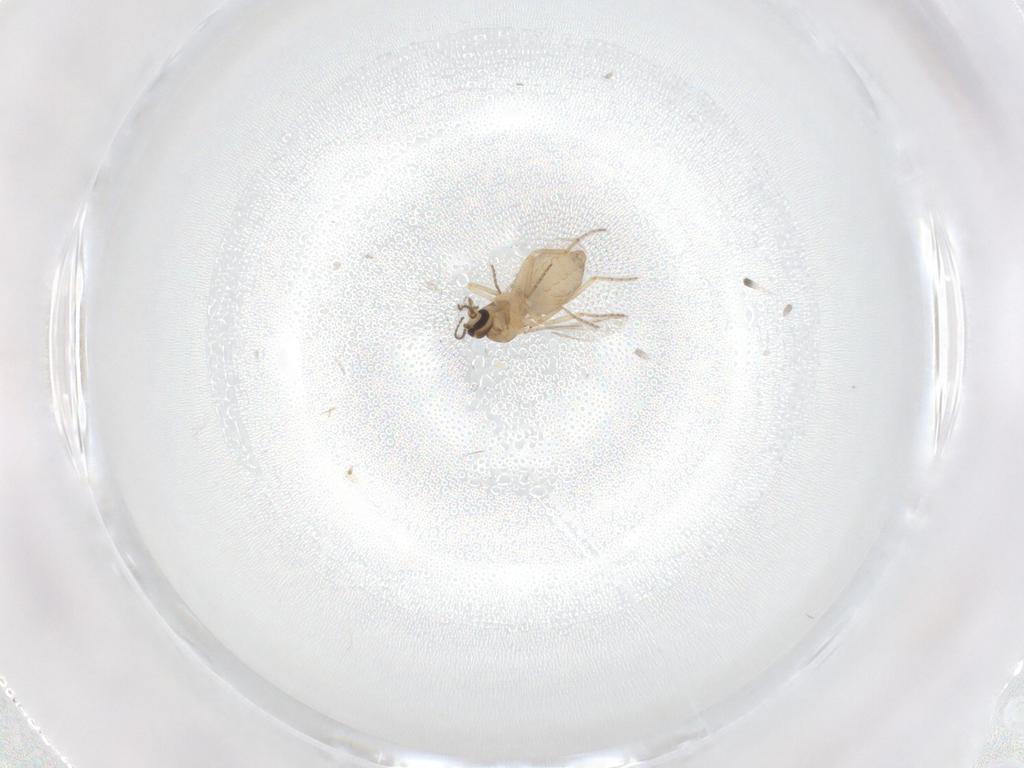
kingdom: Animalia
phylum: Arthropoda
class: Insecta
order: Diptera
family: Ceratopogonidae
